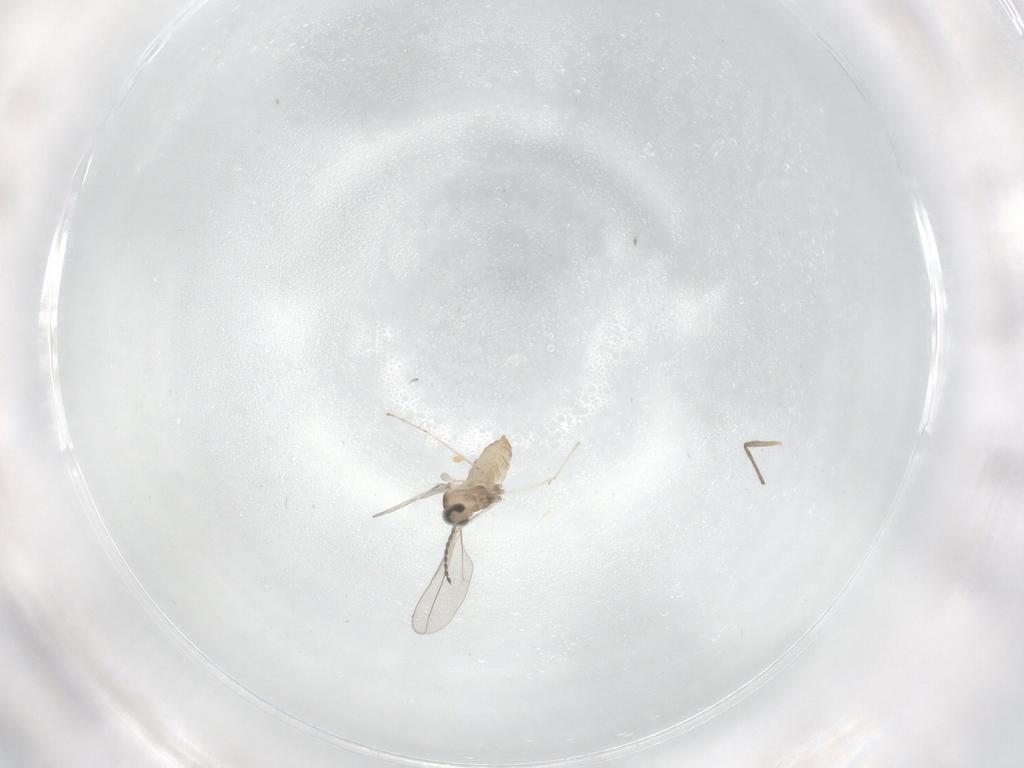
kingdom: Animalia
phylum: Arthropoda
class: Insecta
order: Diptera
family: Cecidomyiidae
